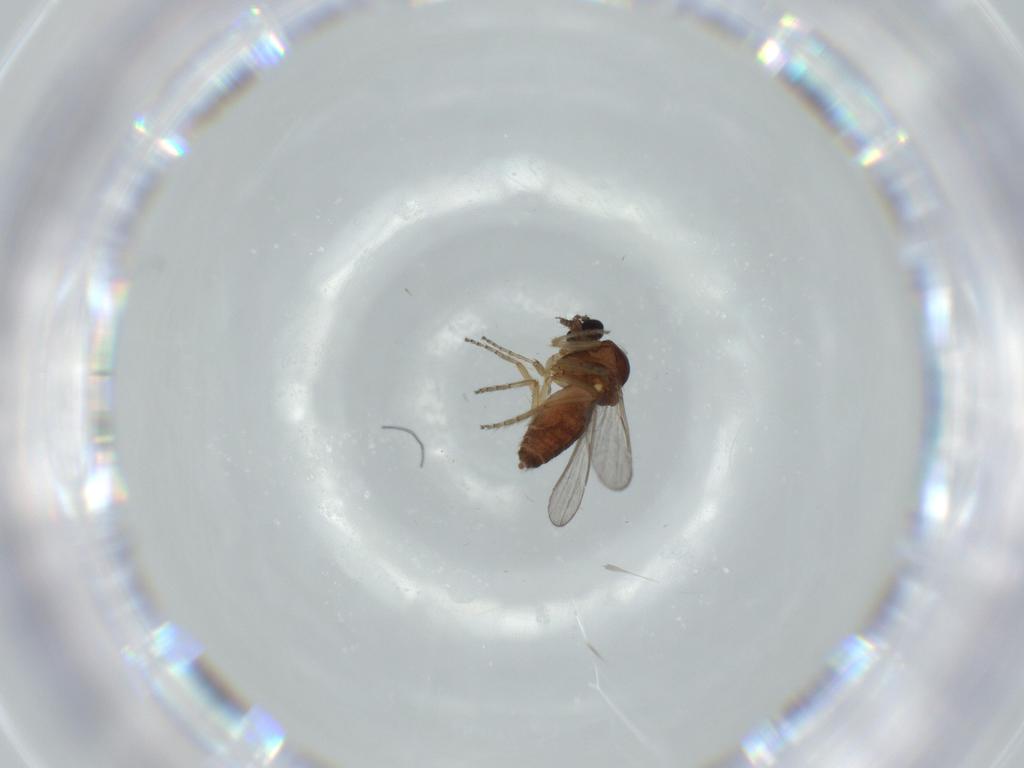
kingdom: Animalia
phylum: Arthropoda
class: Insecta
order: Diptera
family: Ceratopogonidae
